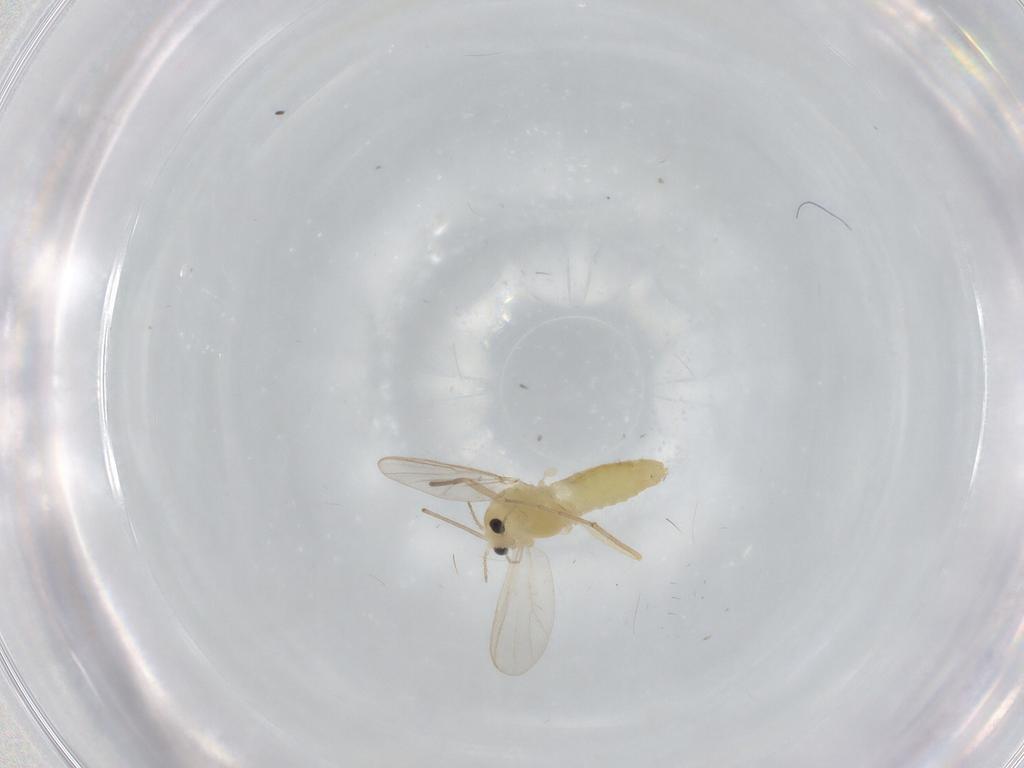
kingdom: Animalia
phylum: Arthropoda
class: Insecta
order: Diptera
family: Chironomidae
